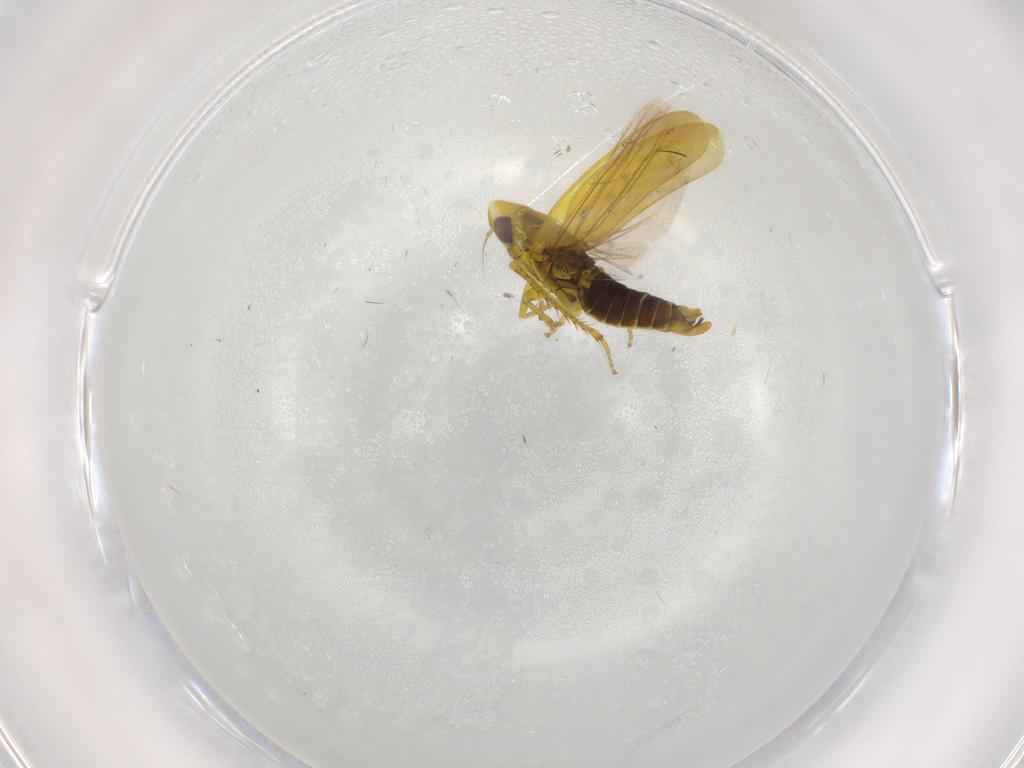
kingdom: Animalia
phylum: Arthropoda
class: Insecta
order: Hemiptera
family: Cicadellidae
